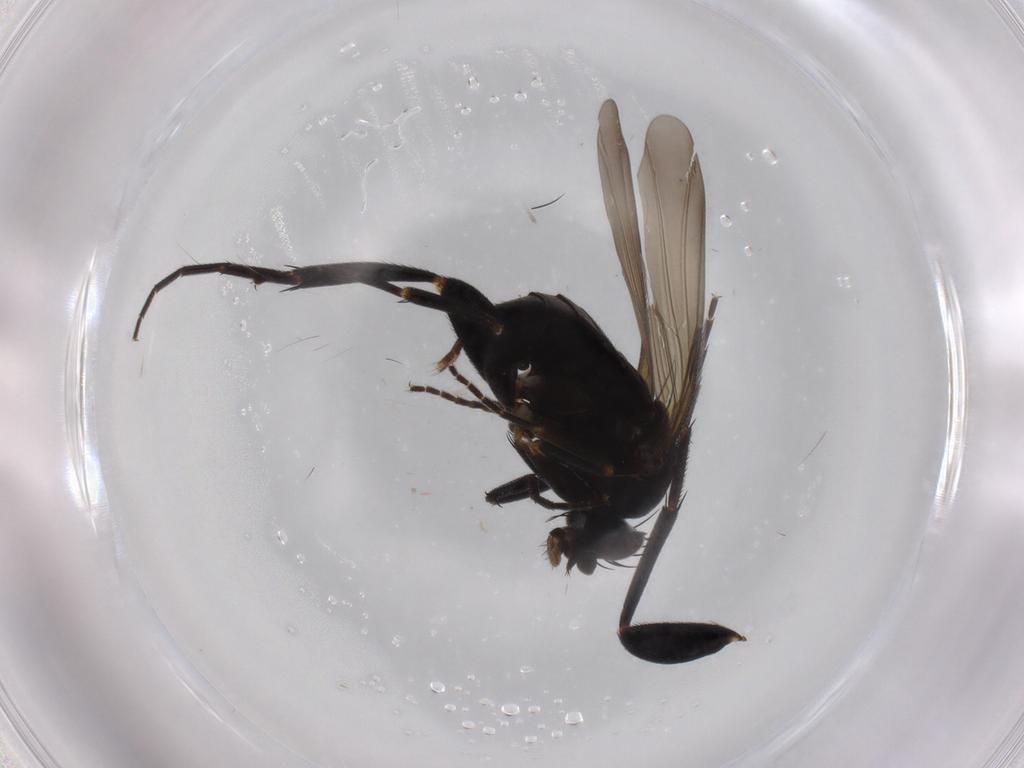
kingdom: Animalia
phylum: Arthropoda
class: Insecta
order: Diptera
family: Phoridae
